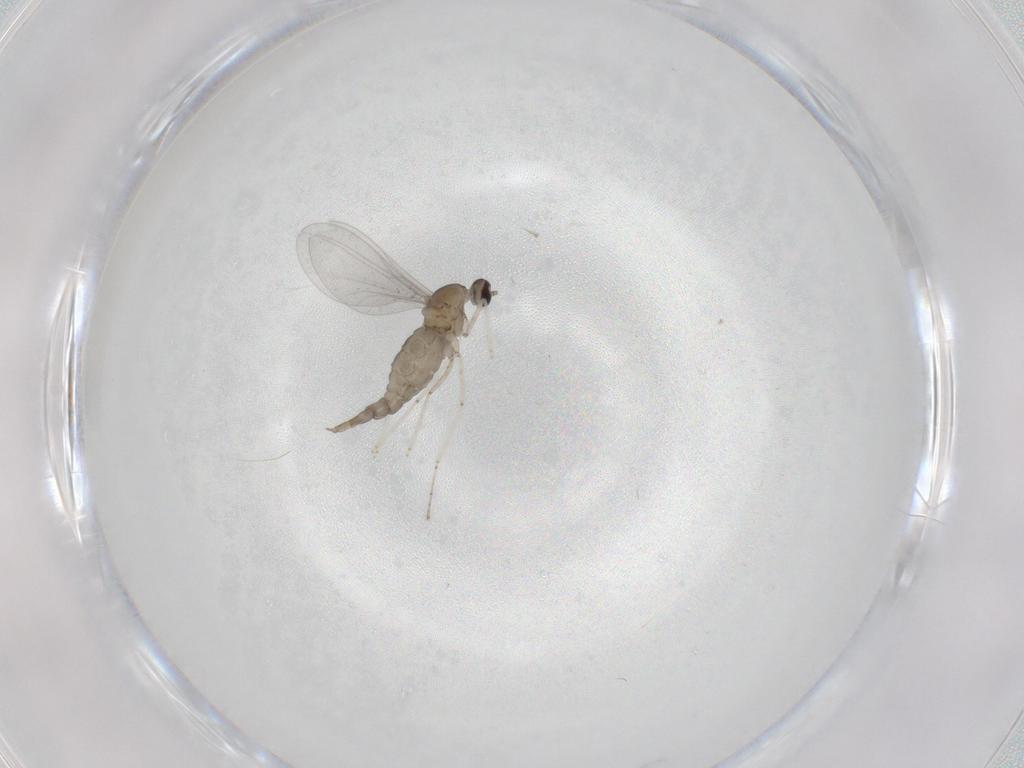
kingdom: Animalia
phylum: Arthropoda
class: Insecta
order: Diptera
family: Cecidomyiidae
